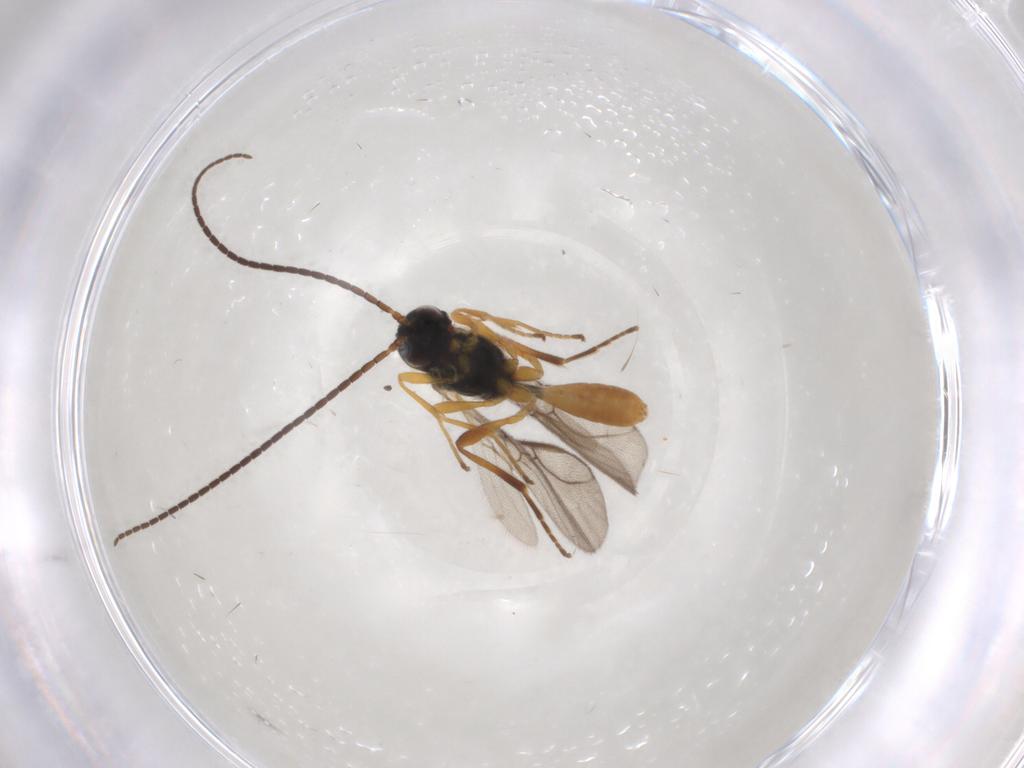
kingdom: Animalia
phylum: Arthropoda
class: Insecta
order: Hymenoptera
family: Braconidae
